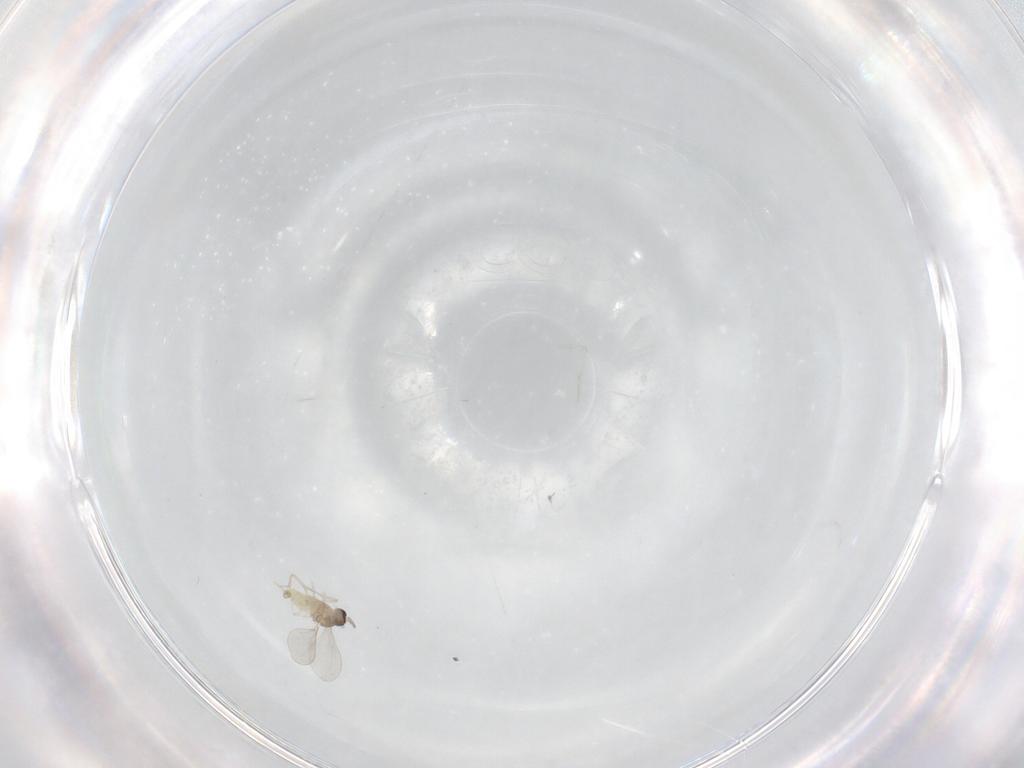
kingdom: Animalia
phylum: Arthropoda
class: Insecta
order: Diptera
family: Cecidomyiidae
